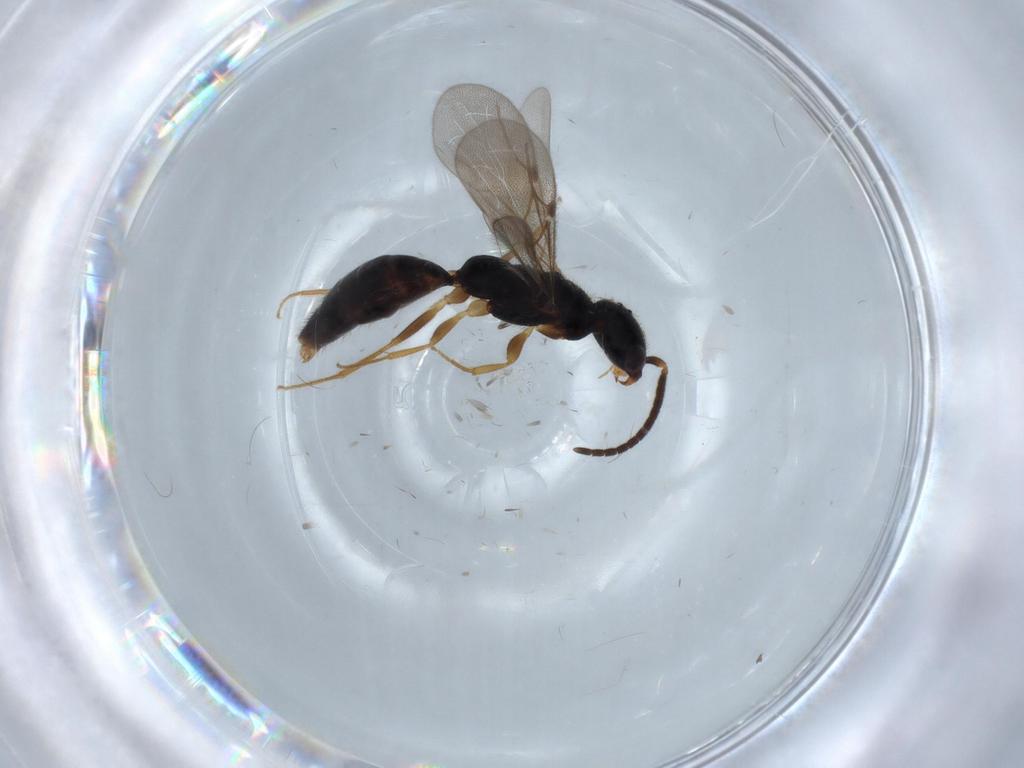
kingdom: Animalia
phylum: Arthropoda
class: Insecta
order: Hymenoptera
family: Bethylidae
